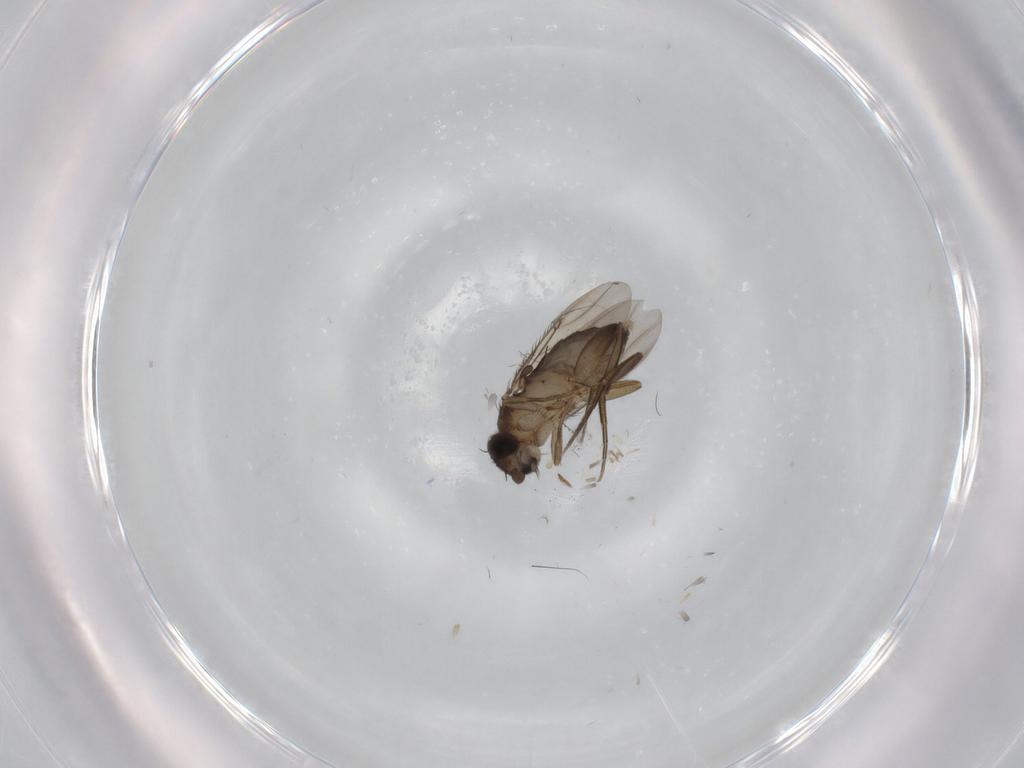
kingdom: Animalia
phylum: Arthropoda
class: Insecta
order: Diptera
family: Phoridae
